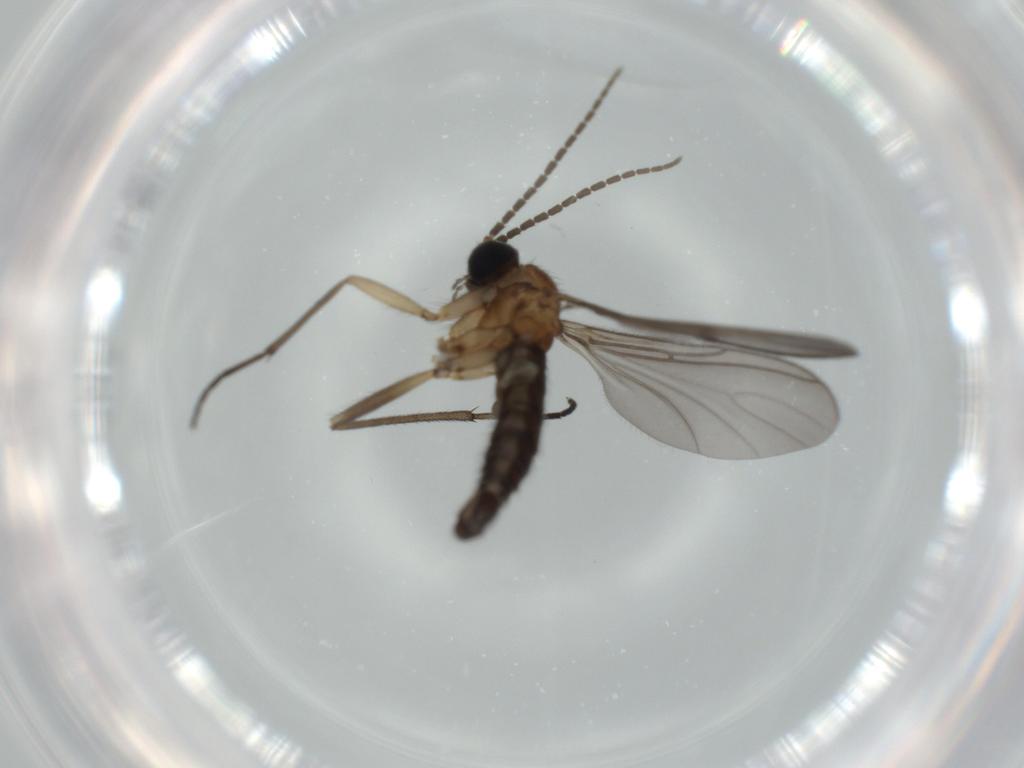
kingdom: Animalia
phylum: Arthropoda
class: Insecta
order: Diptera
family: Sciaridae
